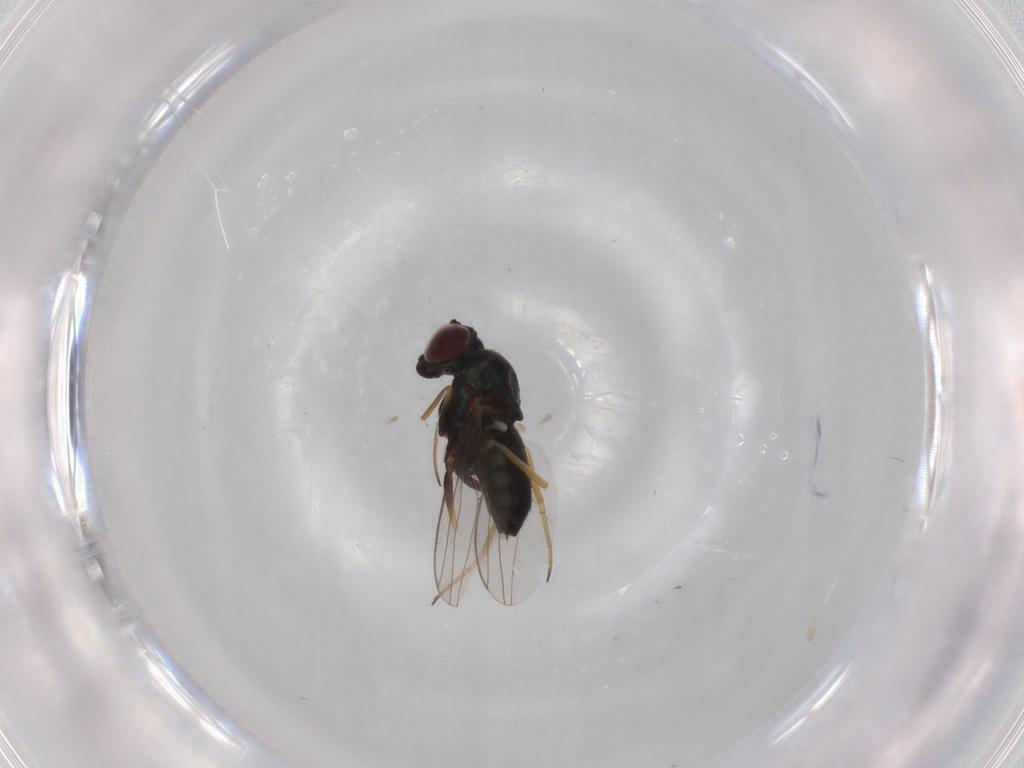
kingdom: Animalia
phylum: Arthropoda
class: Insecta
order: Diptera
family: Dolichopodidae
